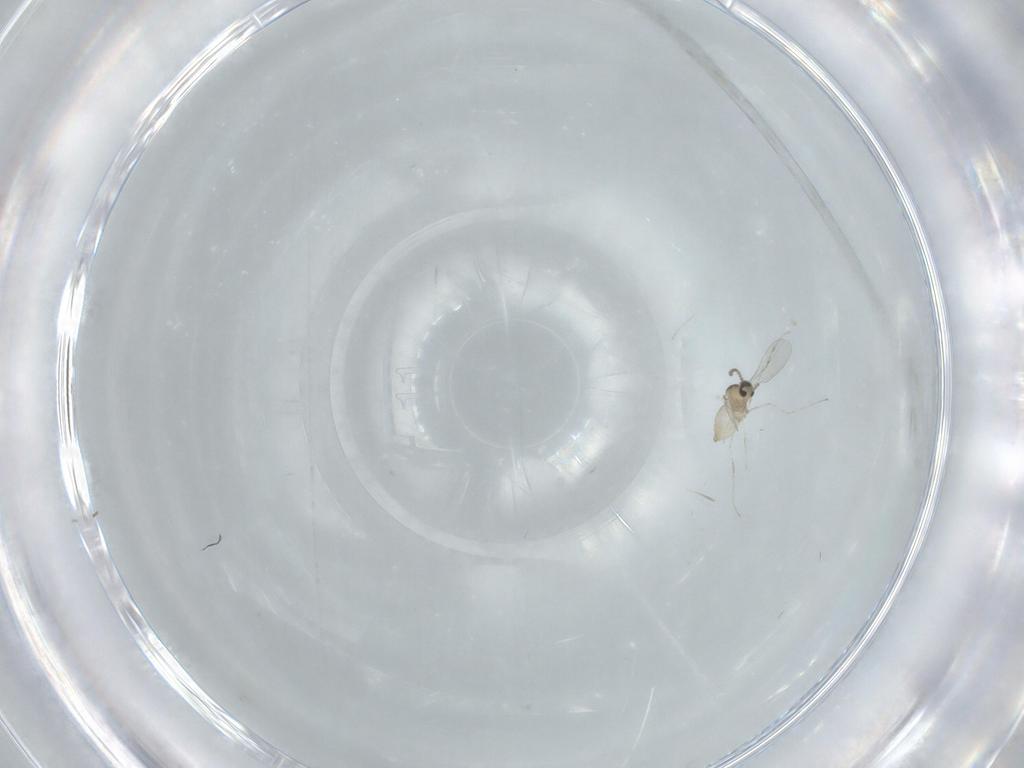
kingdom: Animalia
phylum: Arthropoda
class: Insecta
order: Diptera
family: Cecidomyiidae
